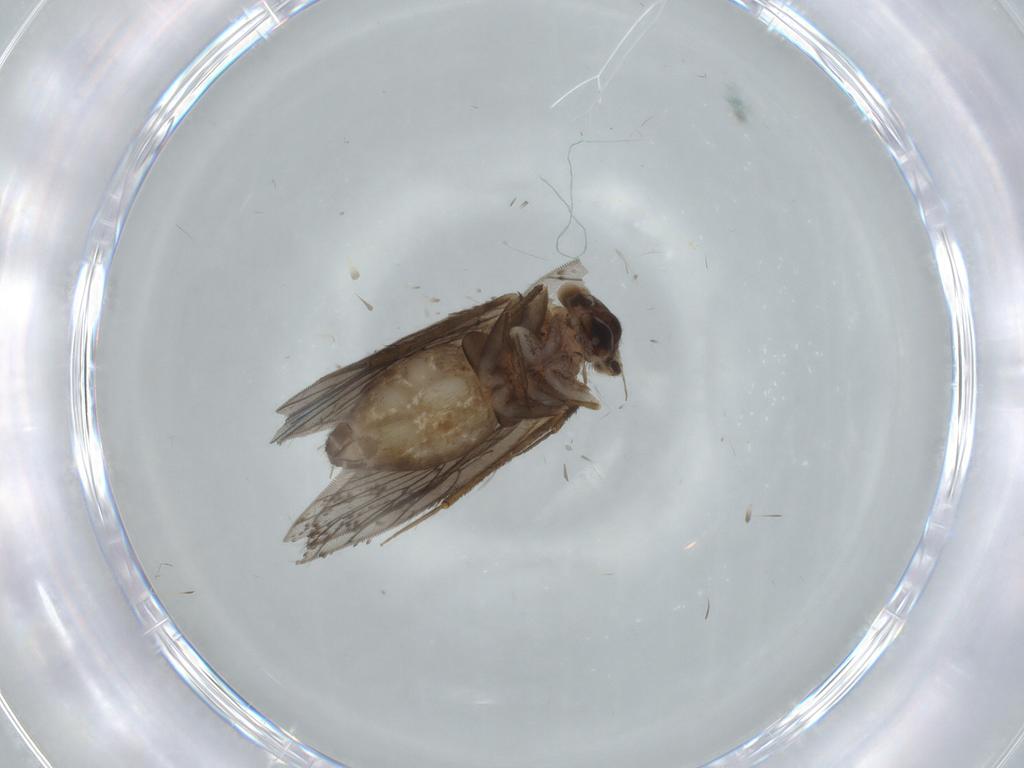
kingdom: Animalia
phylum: Arthropoda
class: Insecta
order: Psocodea
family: Lepidopsocidae
